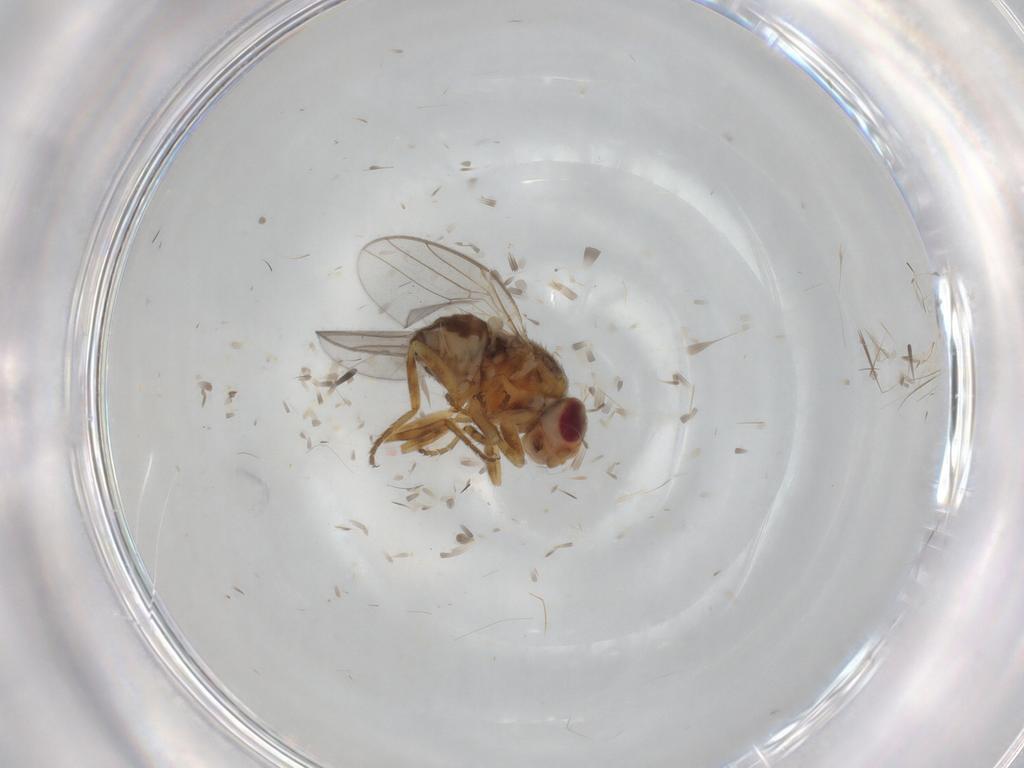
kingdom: Animalia
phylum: Arthropoda
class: Insecta
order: Diptera
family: Chloropidae
